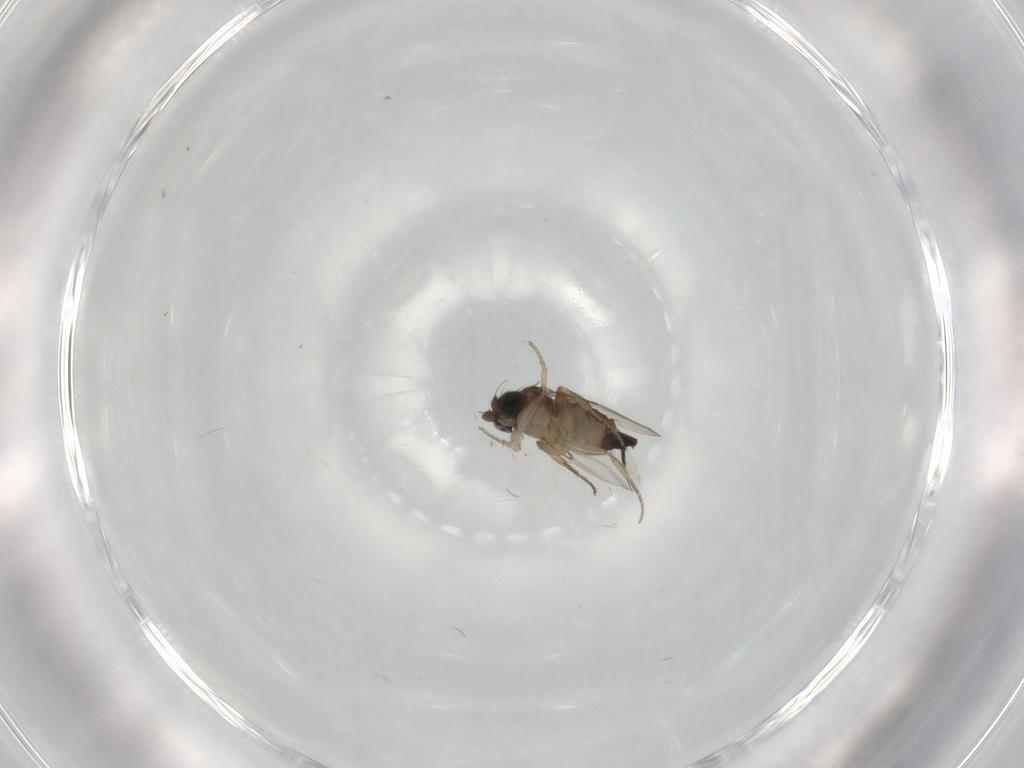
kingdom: Animalia
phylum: Arthropoda
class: Insecta
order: Diptera
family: Phoridae
